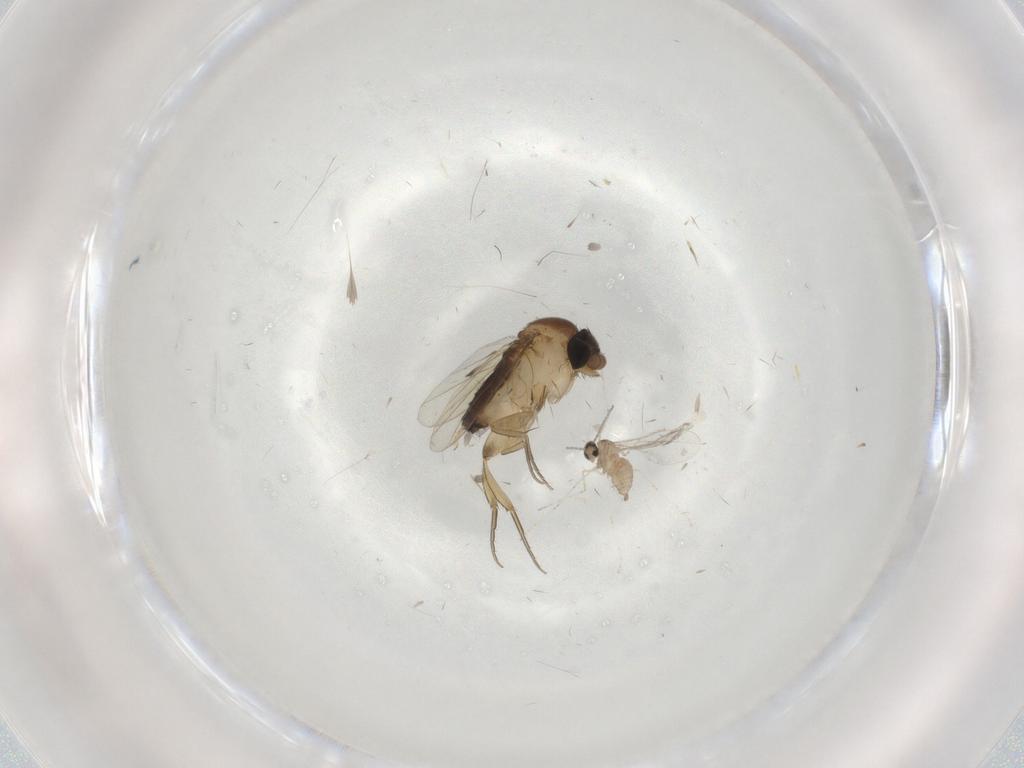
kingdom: Animalia
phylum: Arthropoda
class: Insecta
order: Diptera
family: Phoridae
